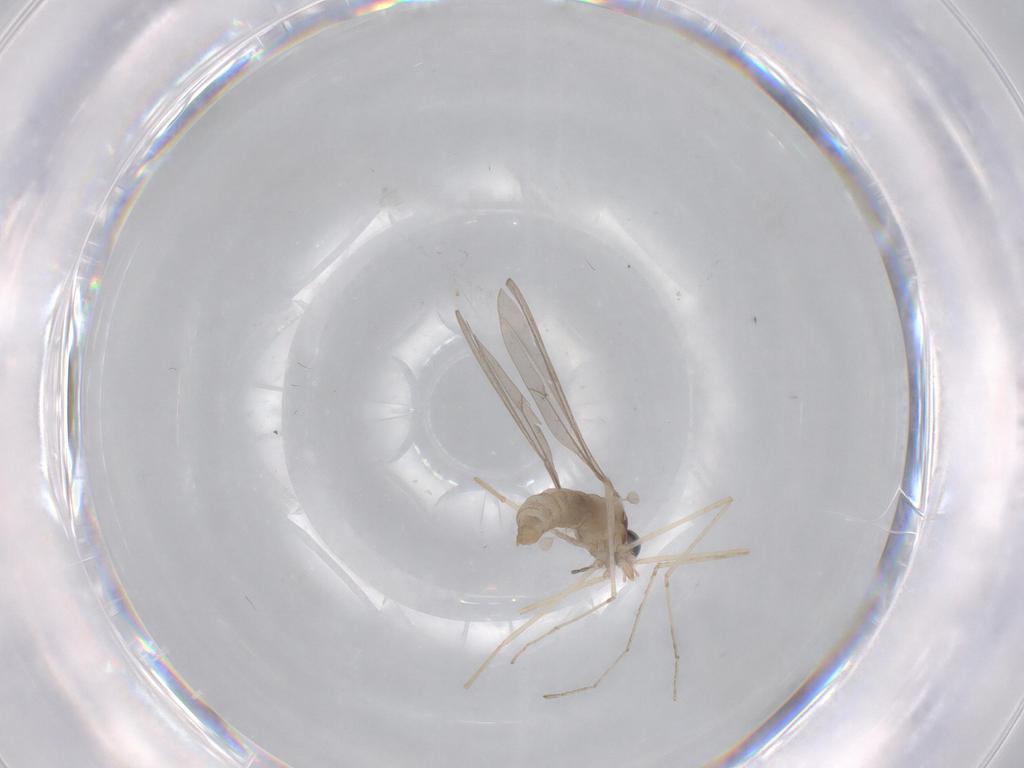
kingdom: Animalia
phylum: Arthropoda
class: Insecta
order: Diptera
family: Cecidomyiidae
